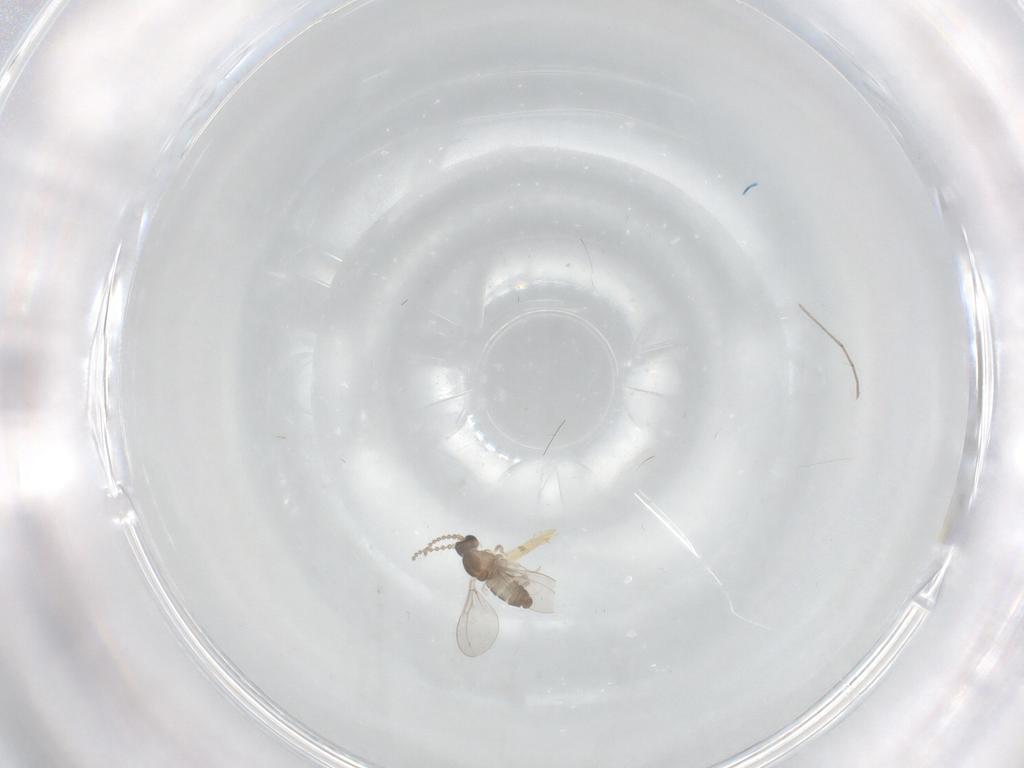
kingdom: Animalia
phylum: Arthropoda
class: Insecta
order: Diptera
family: Cecidomyiidae
